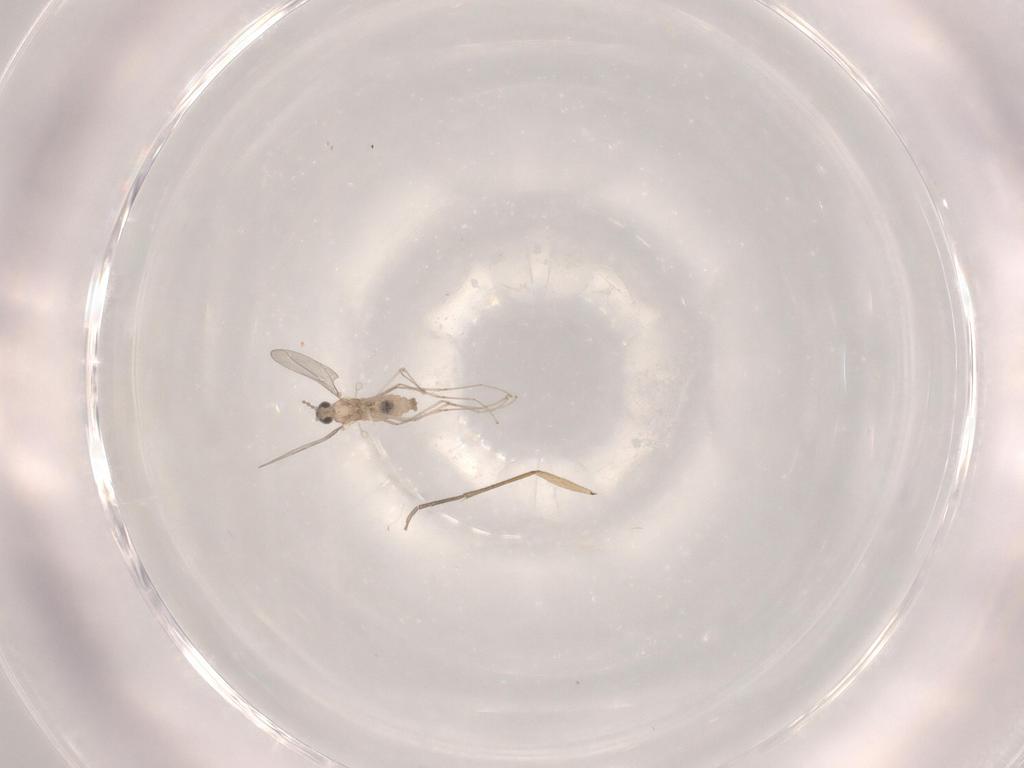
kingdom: Animalia
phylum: Arthropoda
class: Insecta
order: Diptera
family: Cecidomyiidae
